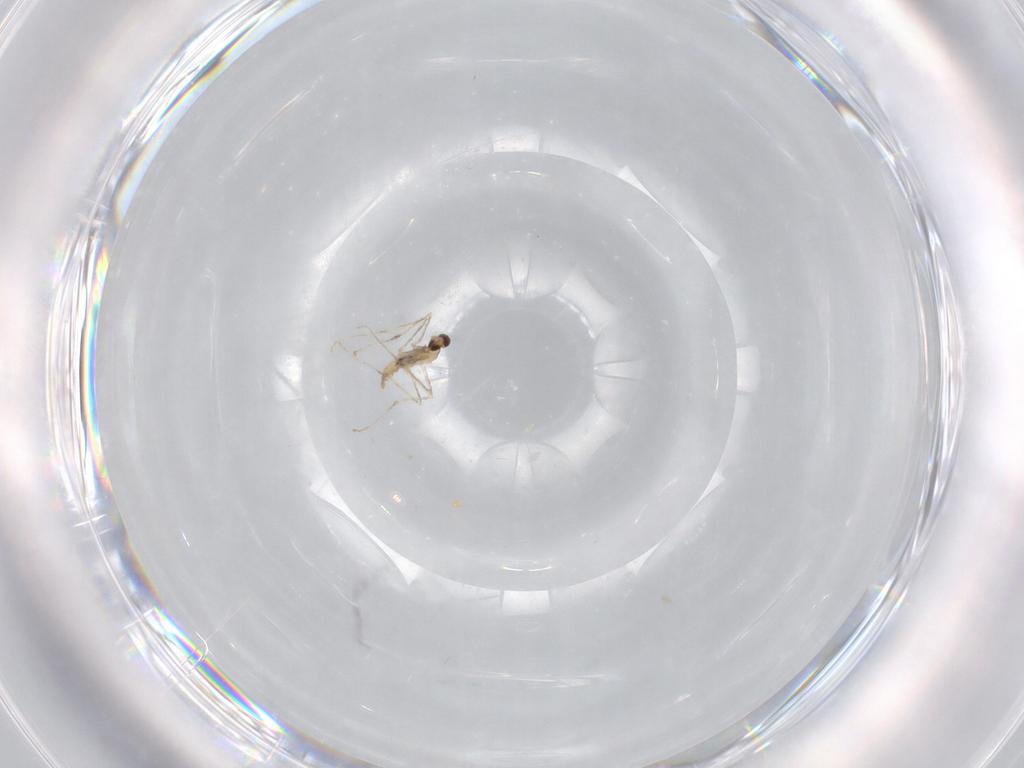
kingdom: Animalia
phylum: Arthropoda
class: Insecta
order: Diptera
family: Cecidomyiidae
